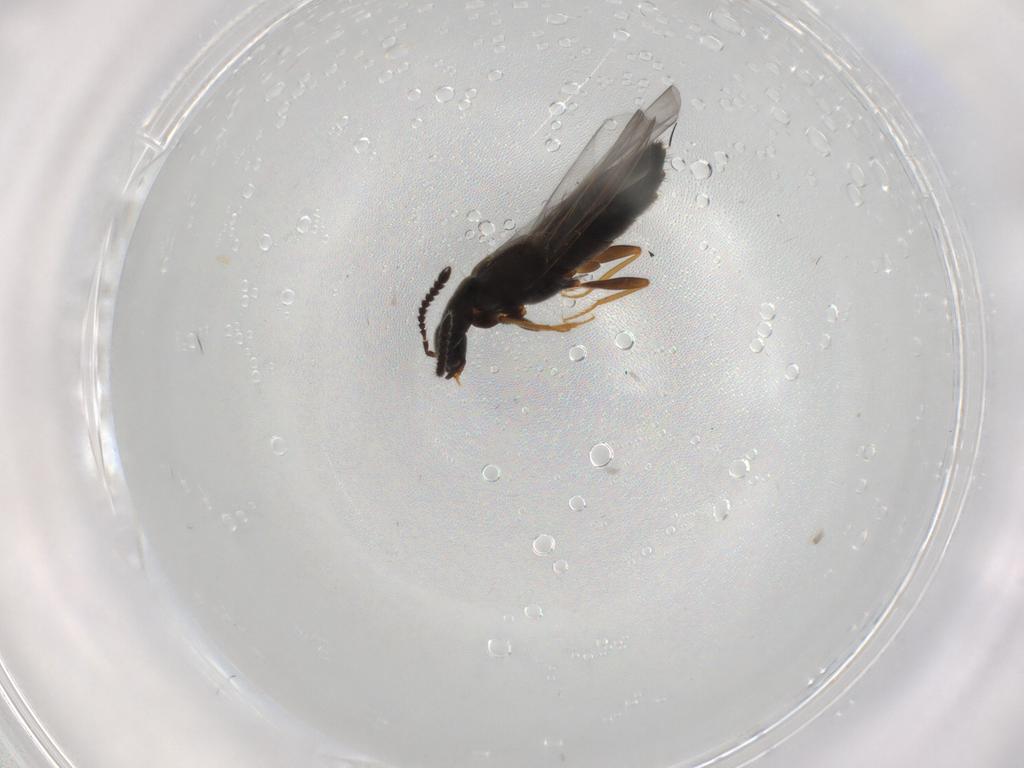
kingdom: Animalia
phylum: Arthropoda
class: Insecta
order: Coleoptera
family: Staphylinidae
